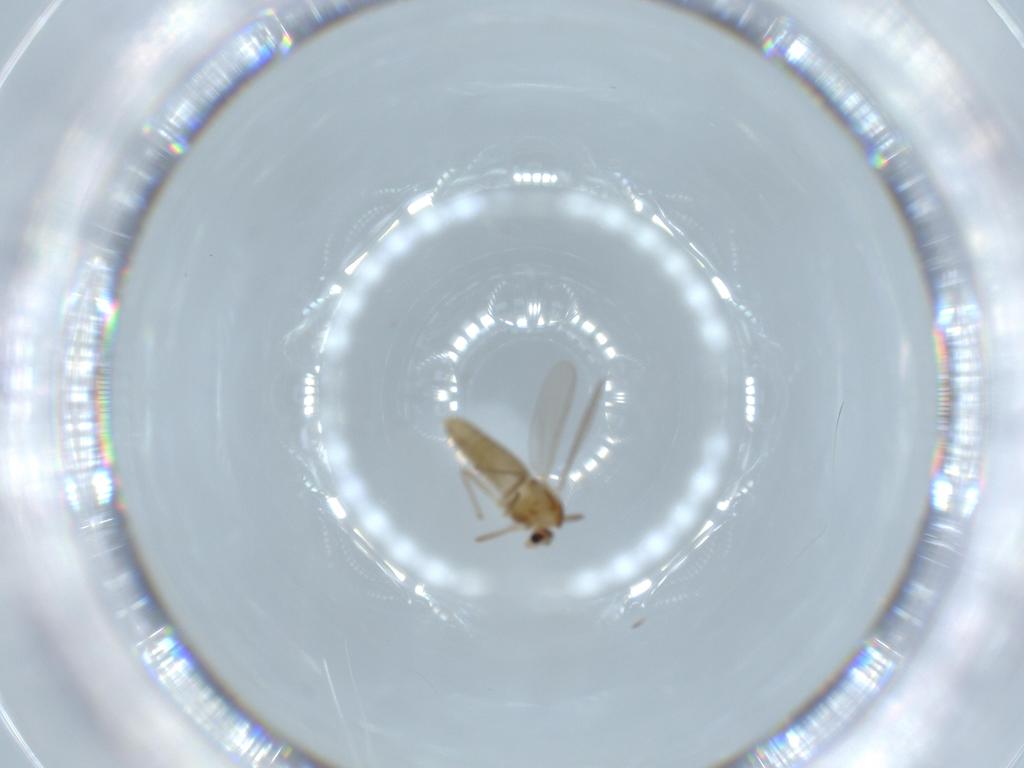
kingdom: Animalia
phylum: Arthropoda
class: Insecta
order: Diptera
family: Chironomidae
